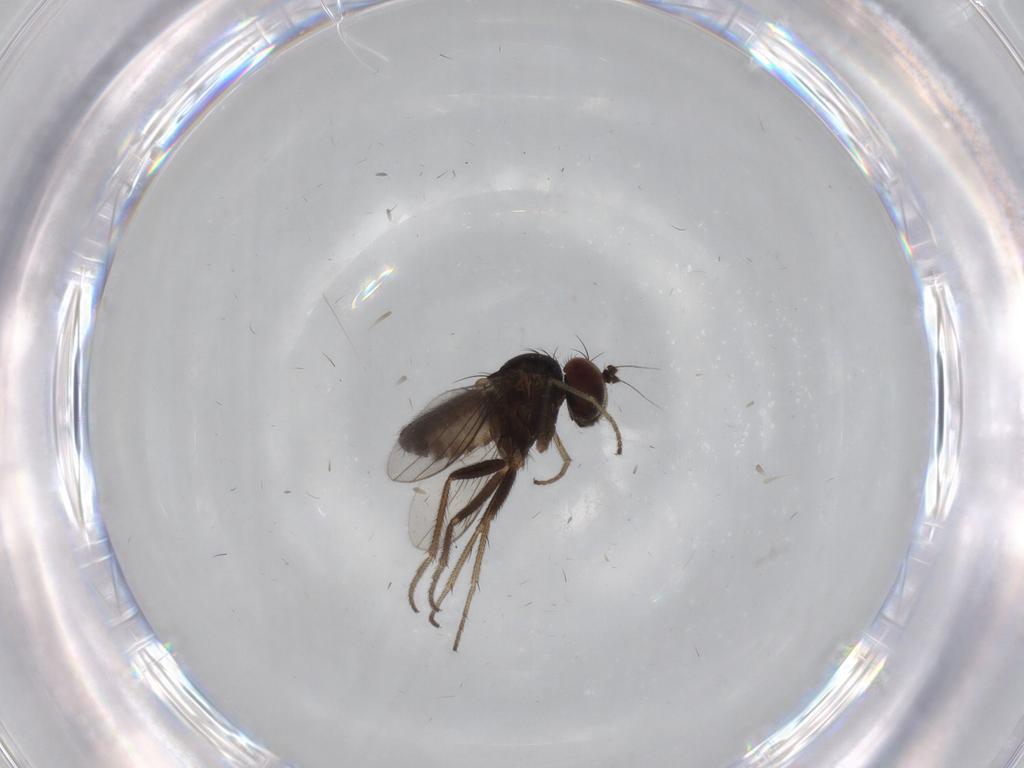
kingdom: Animalia
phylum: Arthropoda
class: Insecta
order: Diptera
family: Dolichopodidae
